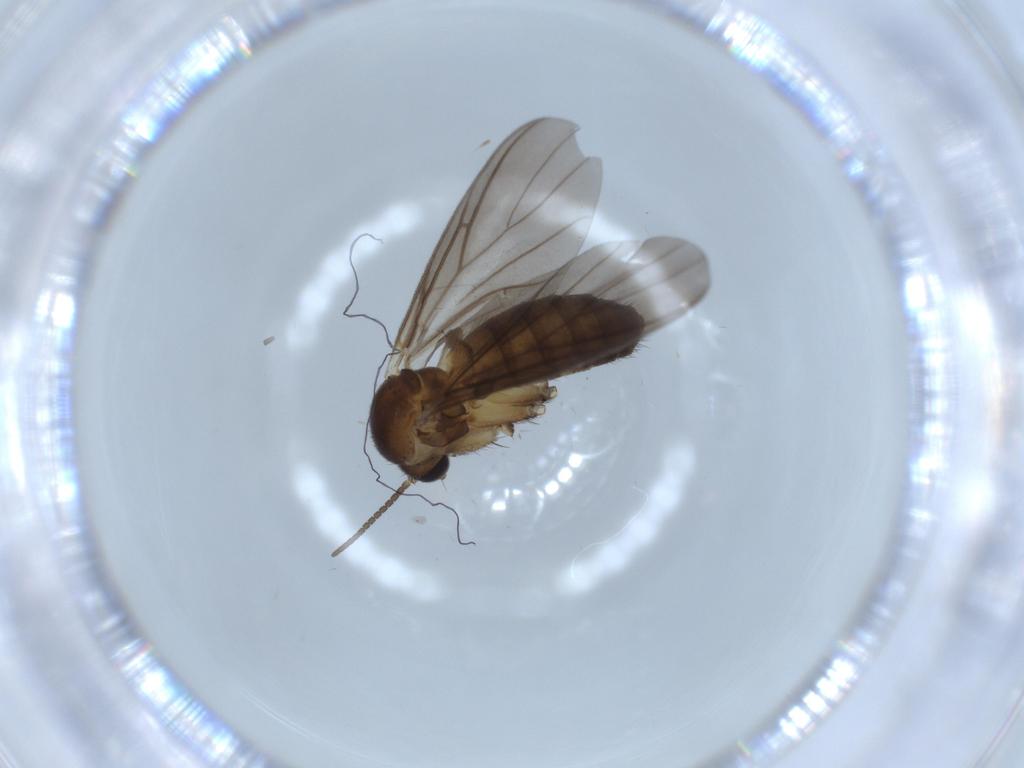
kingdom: Animalia
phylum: Arthropoda
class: Insecta
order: Diptera
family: Mycetophilidae
